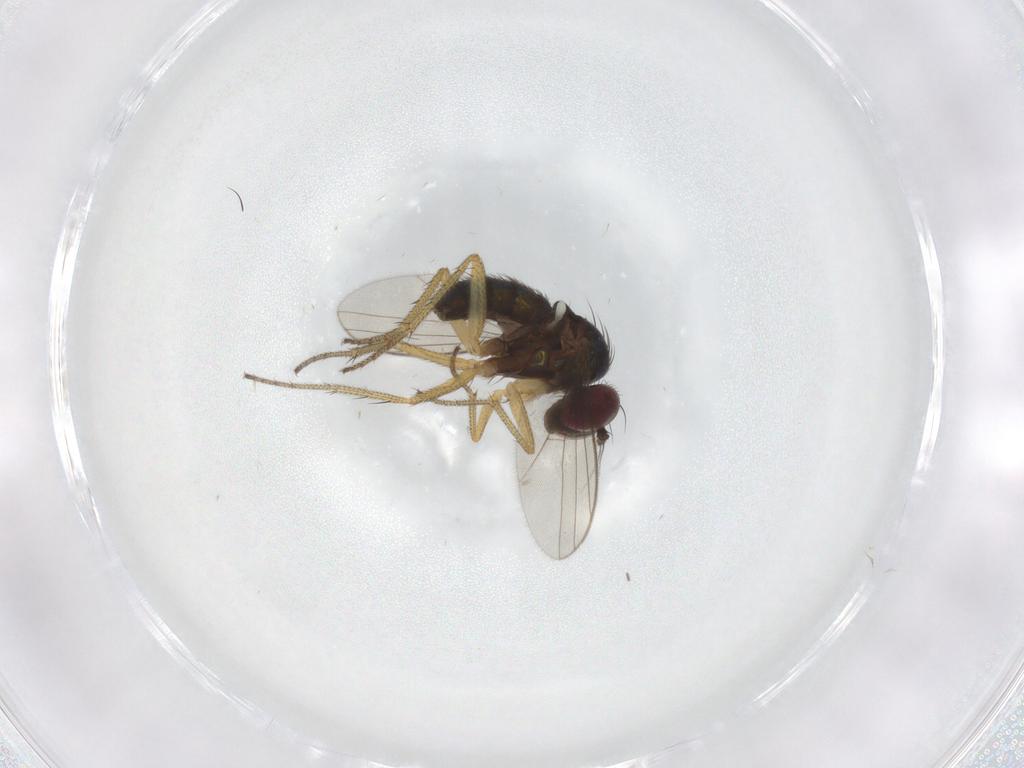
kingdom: Animalia
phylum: Arthropoda
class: Insecta
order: Diptera
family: Dolichopodidae
